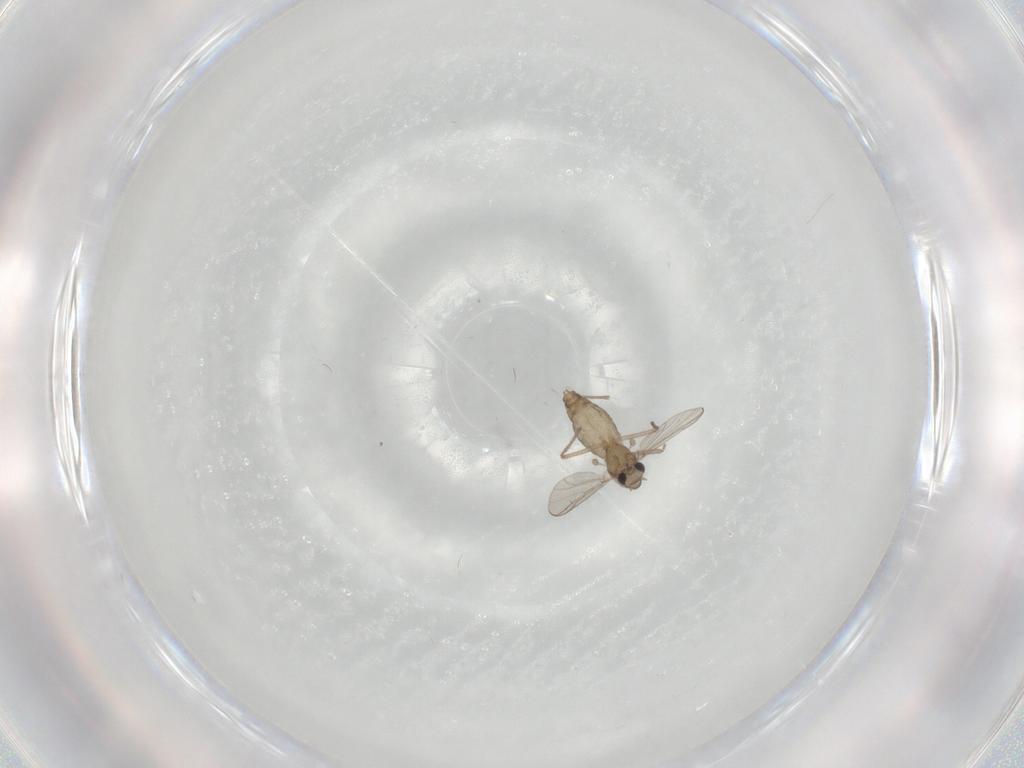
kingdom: Animalia
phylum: Arthropoda
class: Insecta
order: Diptera
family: Chironomidae
